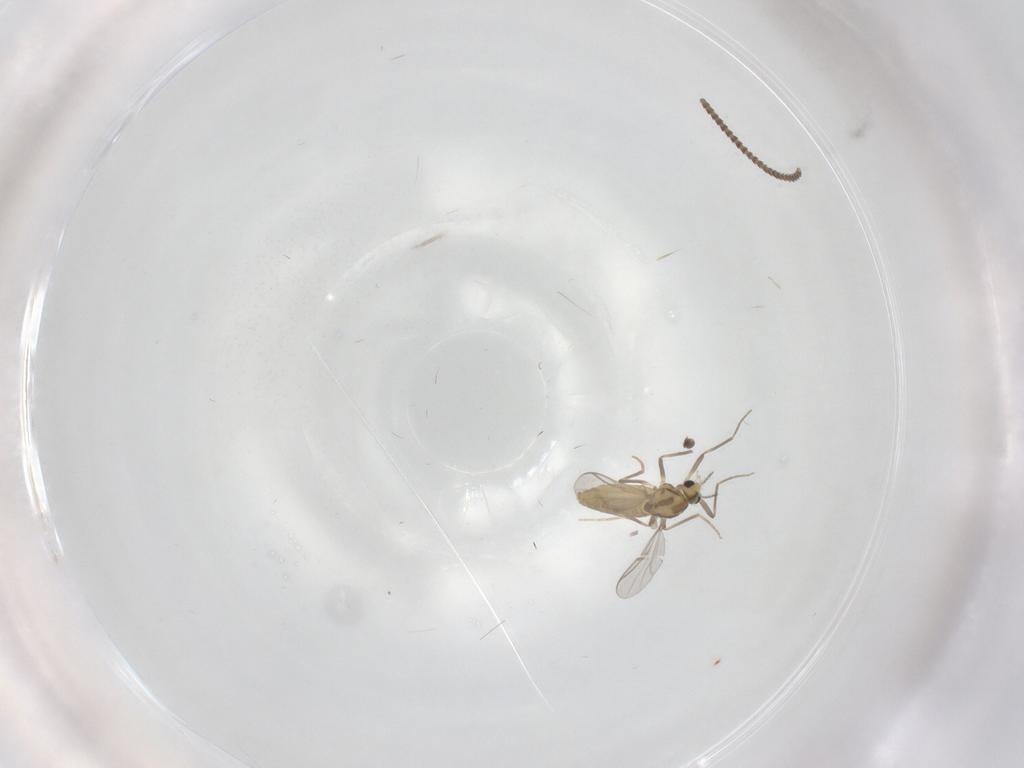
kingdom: Animalia
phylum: Arthropoda
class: Insecta
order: Diptera
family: Chironomidae
